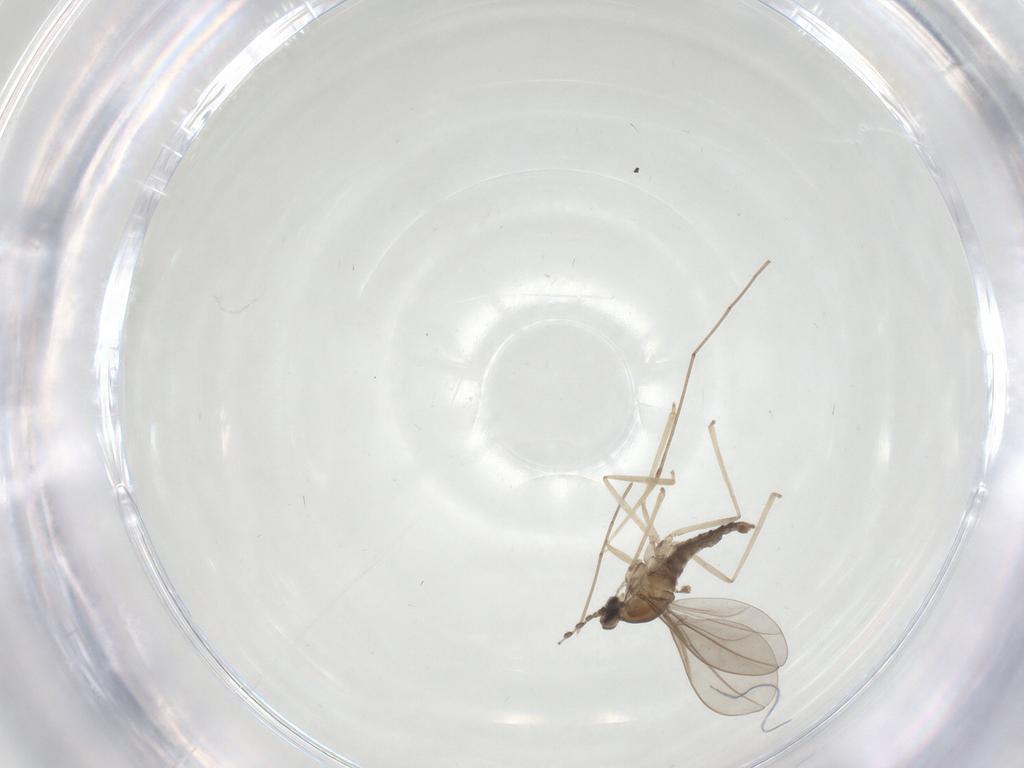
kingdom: Animalia
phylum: Arthropoda
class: Insecta
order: Diptera
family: Cecidomyiidae
